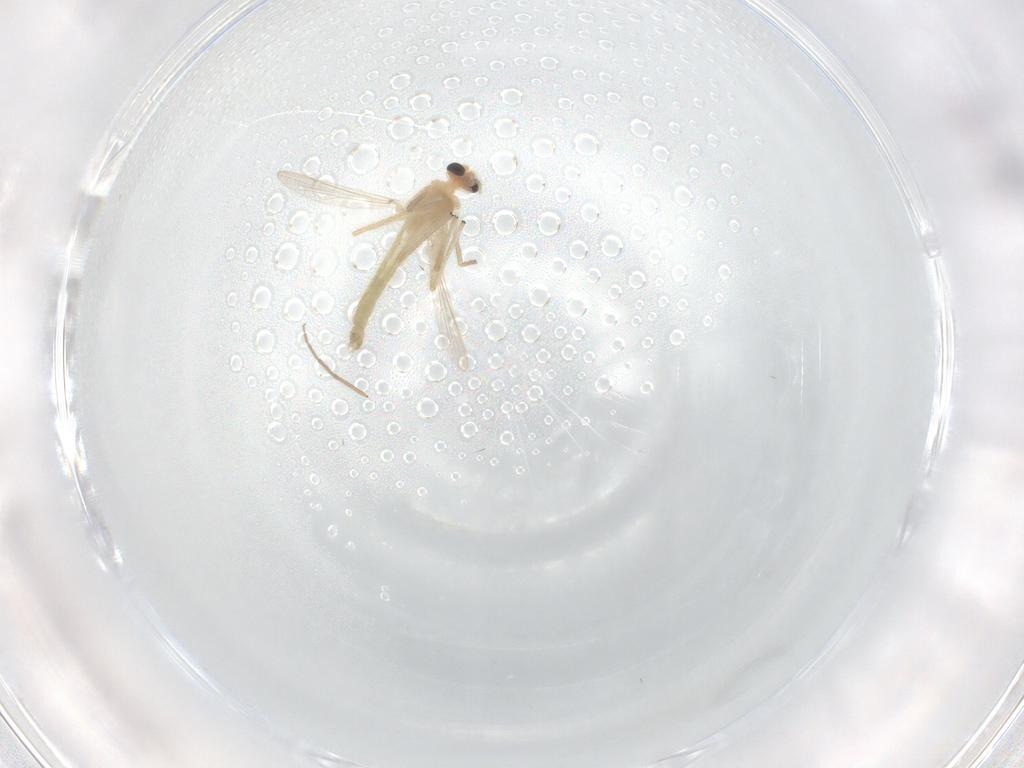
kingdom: Animalia
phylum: Arthropoda
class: Insecta
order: Diptera
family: Chironomidae
